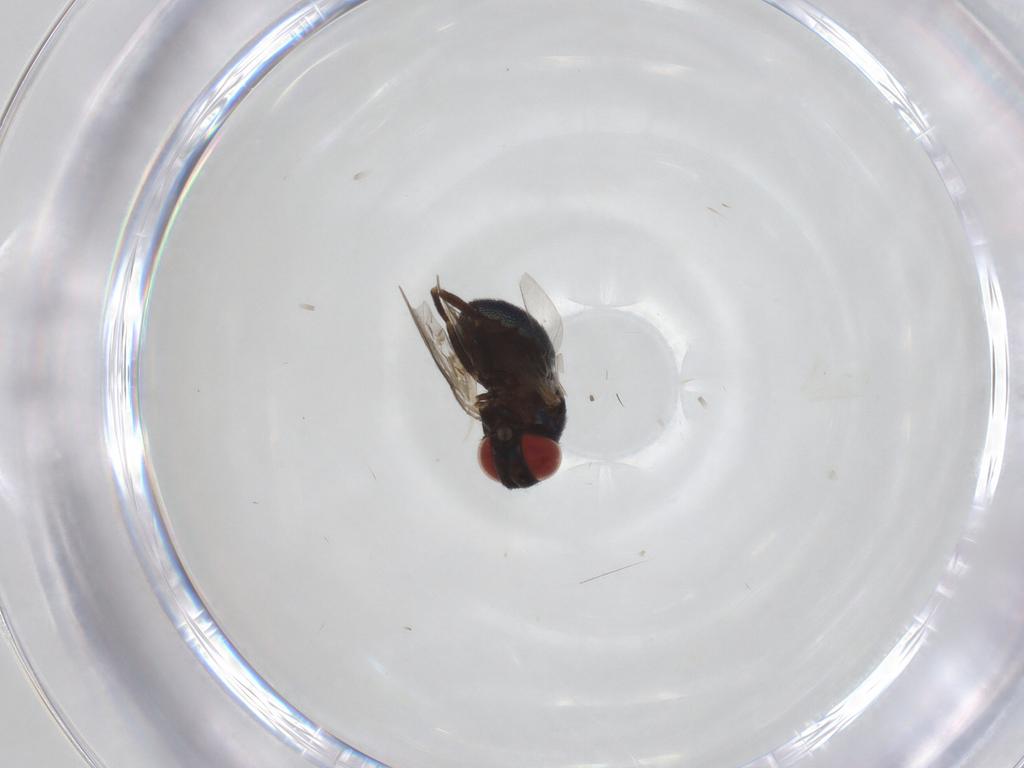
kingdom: Animalia
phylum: Arthropoda
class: Insecta
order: Diptera
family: Cryptochetidae
